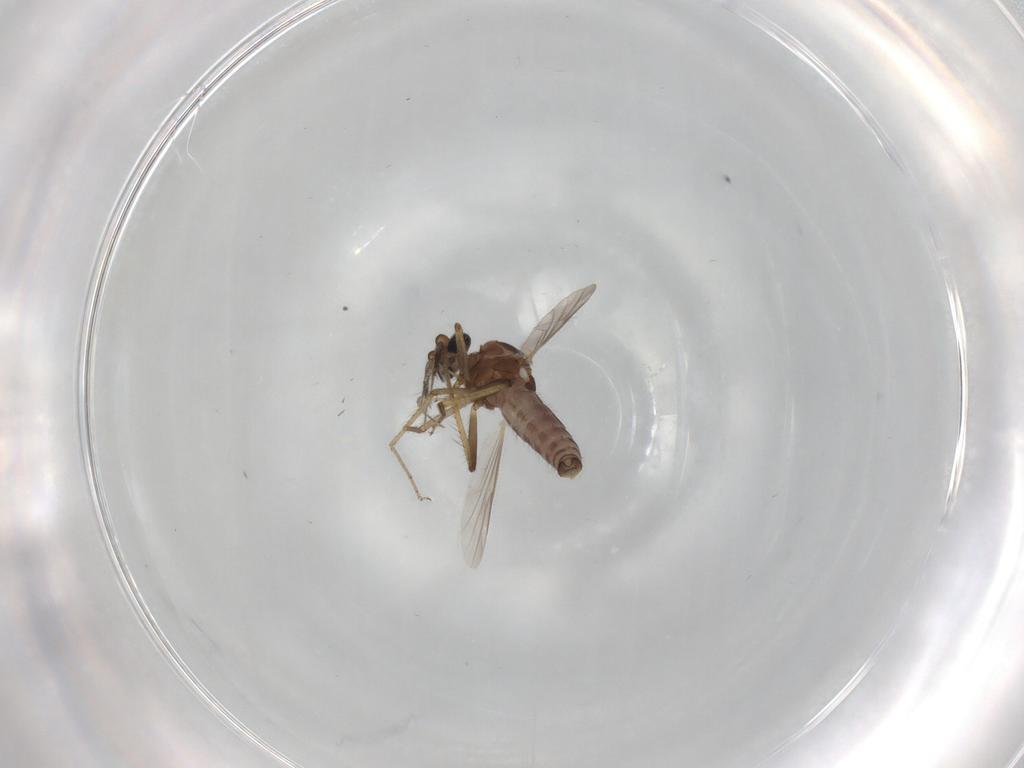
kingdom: Animalia
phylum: Arthropoda
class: Insecta
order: Diptera
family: Ceratopogonidae
